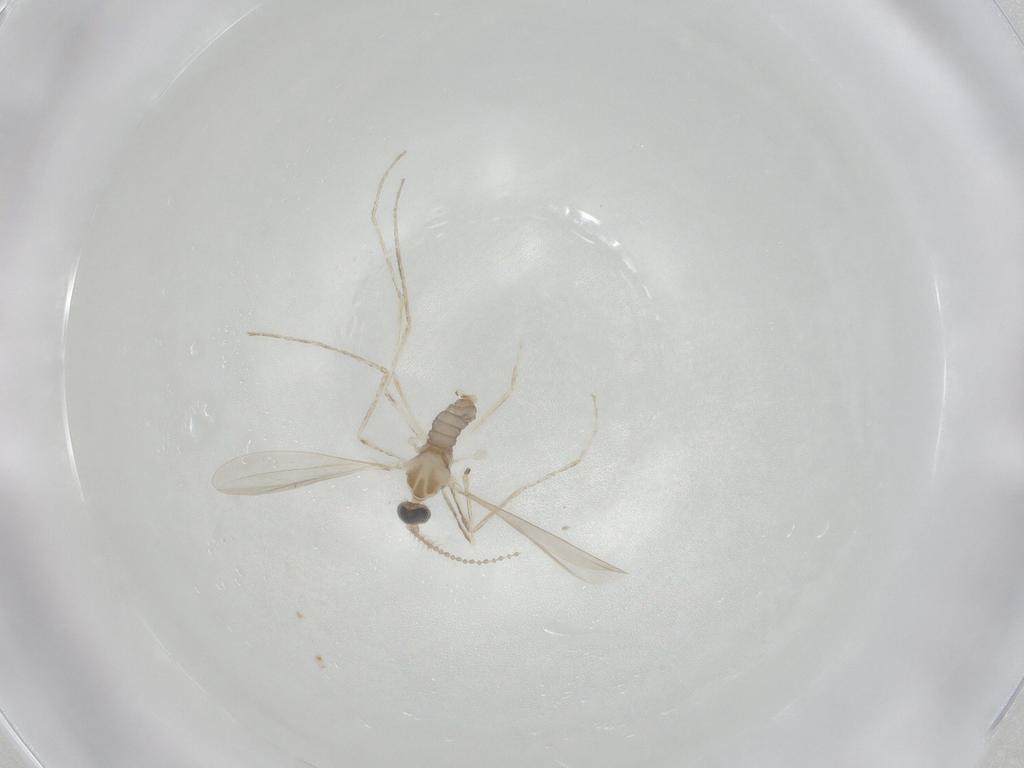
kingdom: Animalia
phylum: Arthropoda
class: Insecta
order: Diptera
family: Cecidomyiidae
